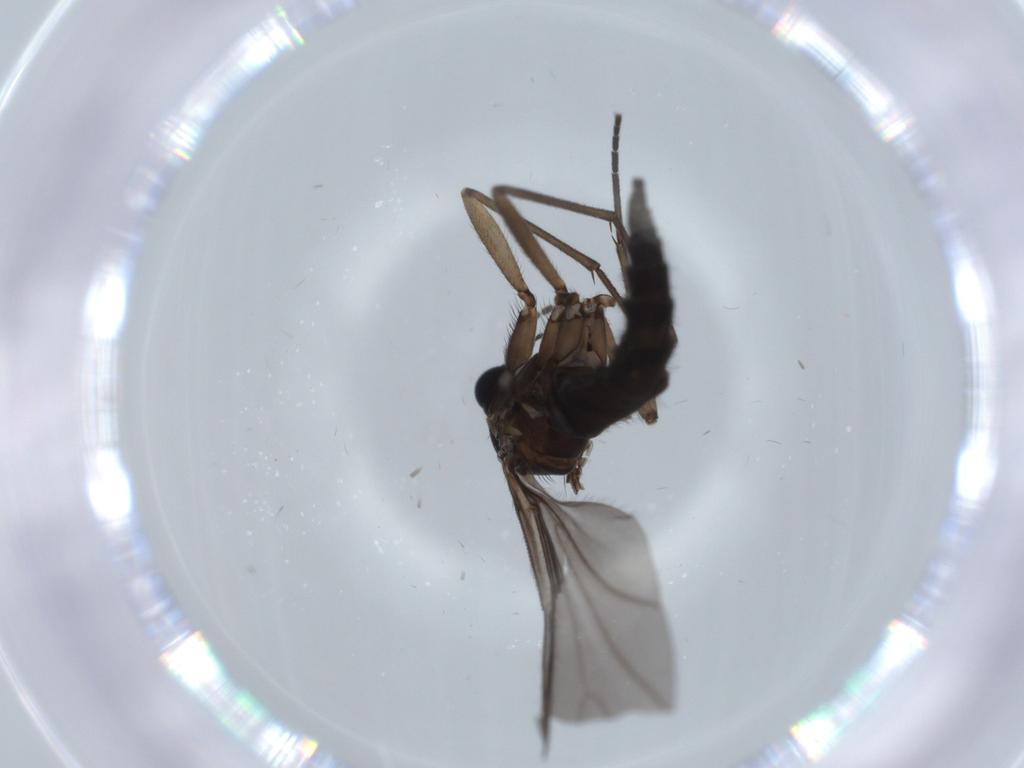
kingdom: Animalia
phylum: Arthropoda
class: Insecta
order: Diptera
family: Sciaridae
